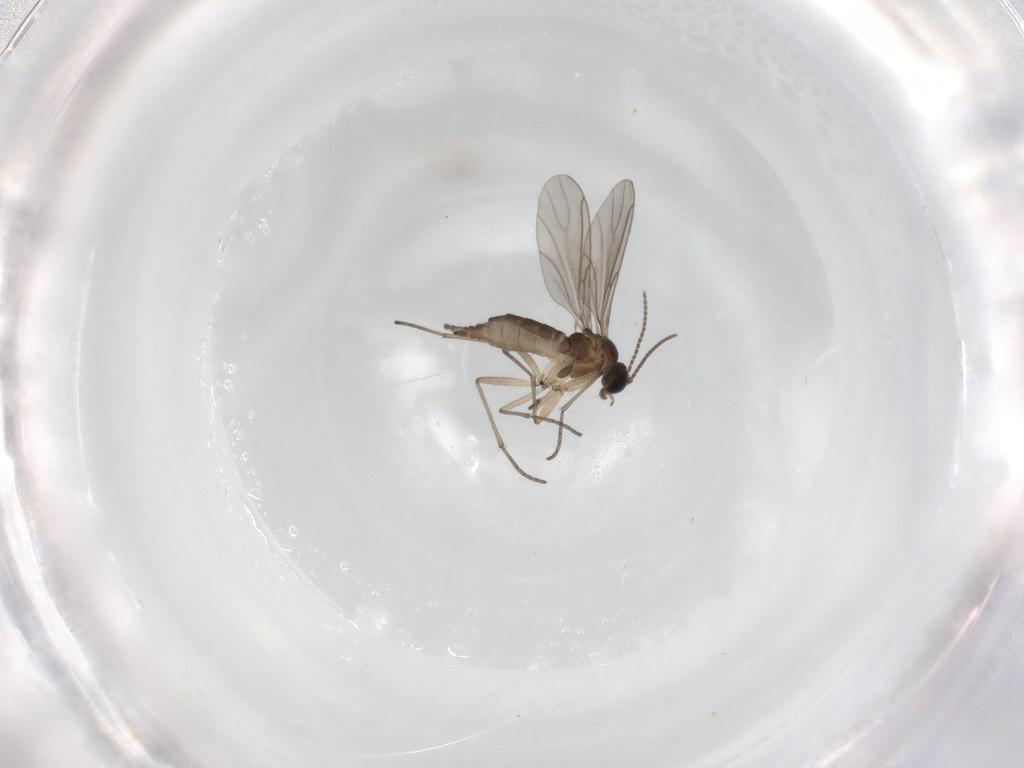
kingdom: Animalia
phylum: Arthropoda
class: Insecta
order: Diptera
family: Sciaridae
